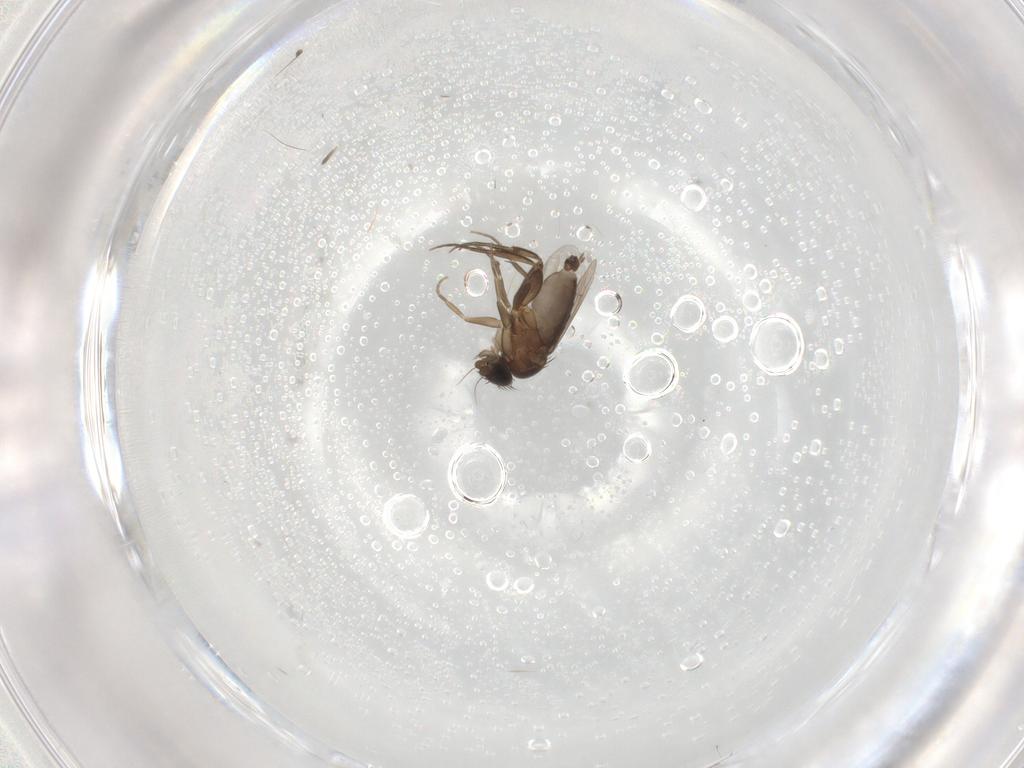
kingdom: Animalia
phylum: Arthropoda
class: Insecta
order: Diptera
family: Phoridae
